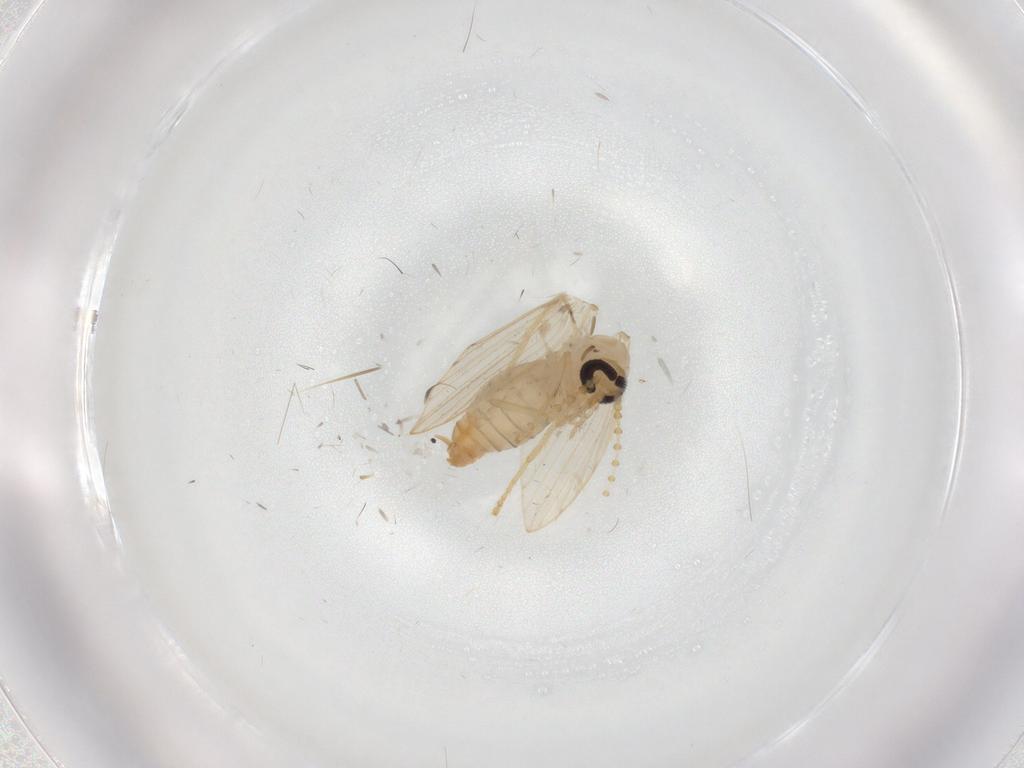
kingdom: Animalia
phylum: Arthropoda
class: Insecta
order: Diptera
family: Psychodidae
